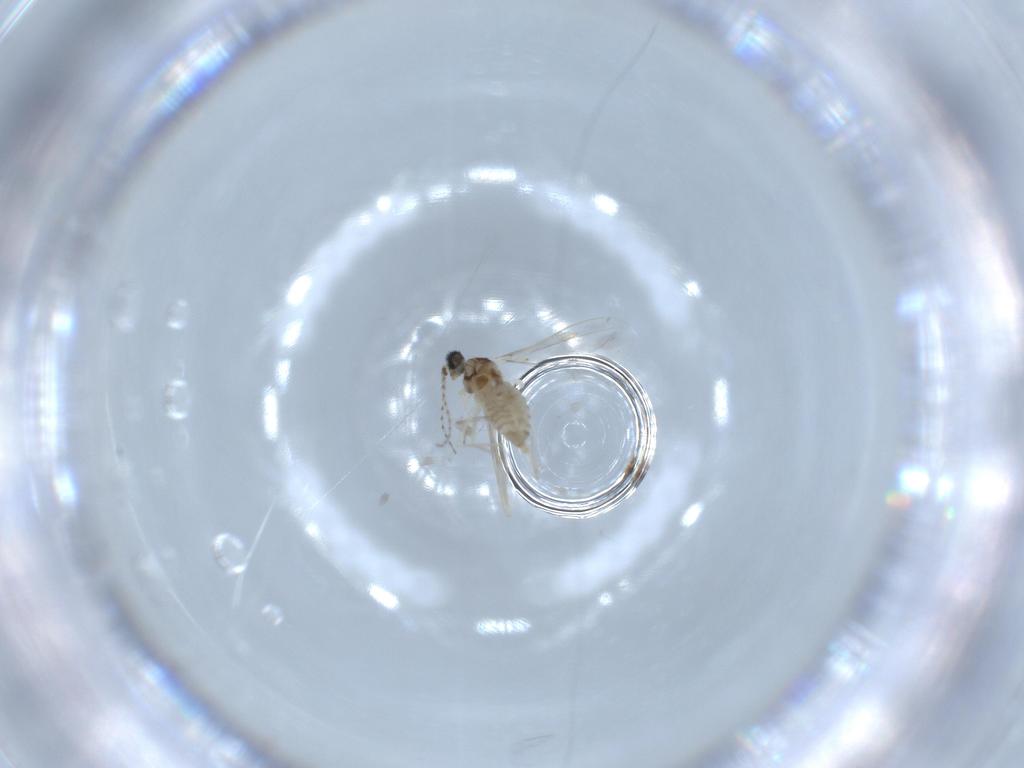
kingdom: Animalia
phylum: Arthropoda
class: Insecta
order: Diptera
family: Cecidomyiidae
